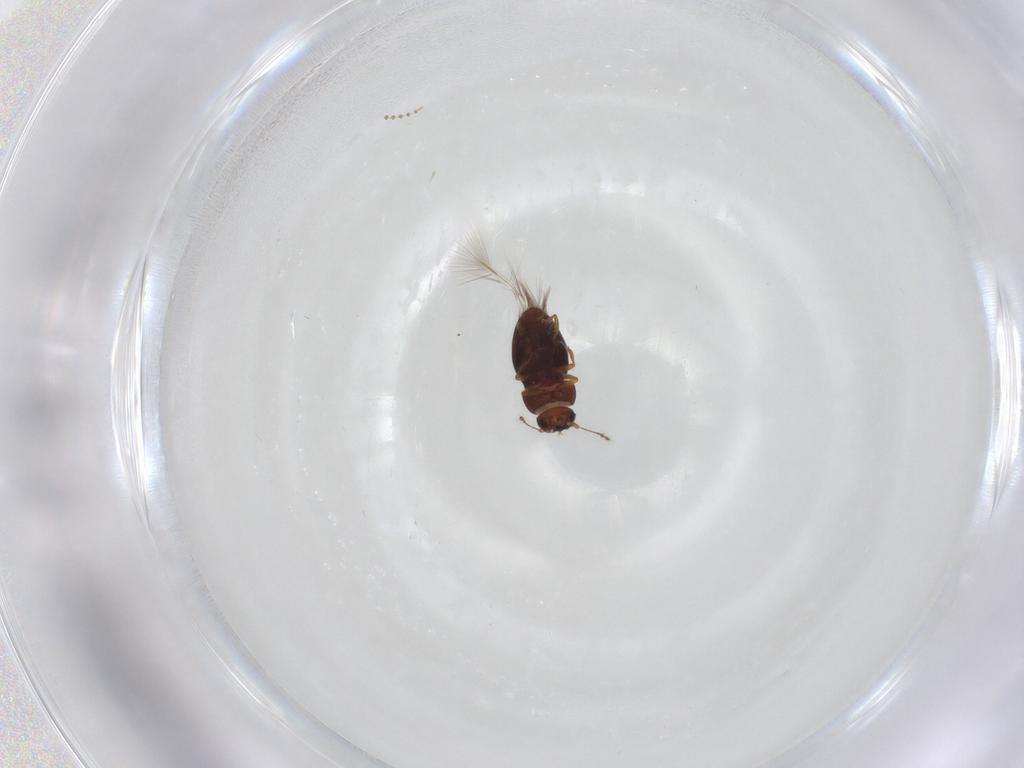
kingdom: Animalia
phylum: Arthropoda
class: Insecta
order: Coleoptera
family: Ptiliidae
